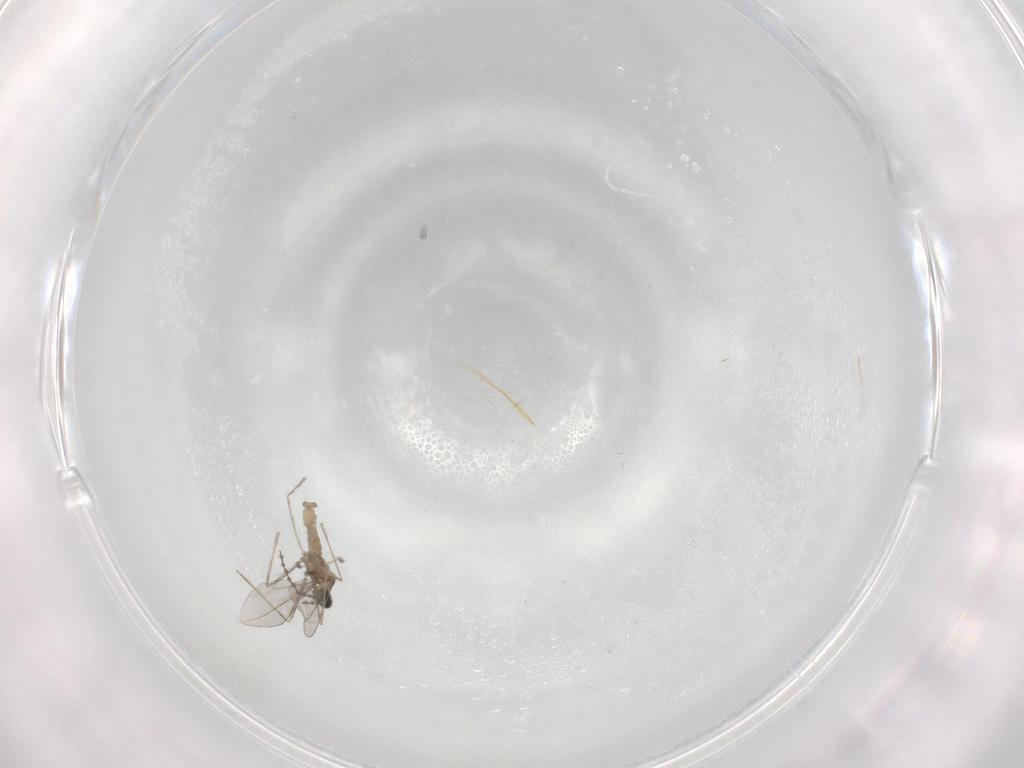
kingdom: Animalia
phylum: Arthropoda
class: Insecta
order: Diptera
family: Cecidomyiidae
